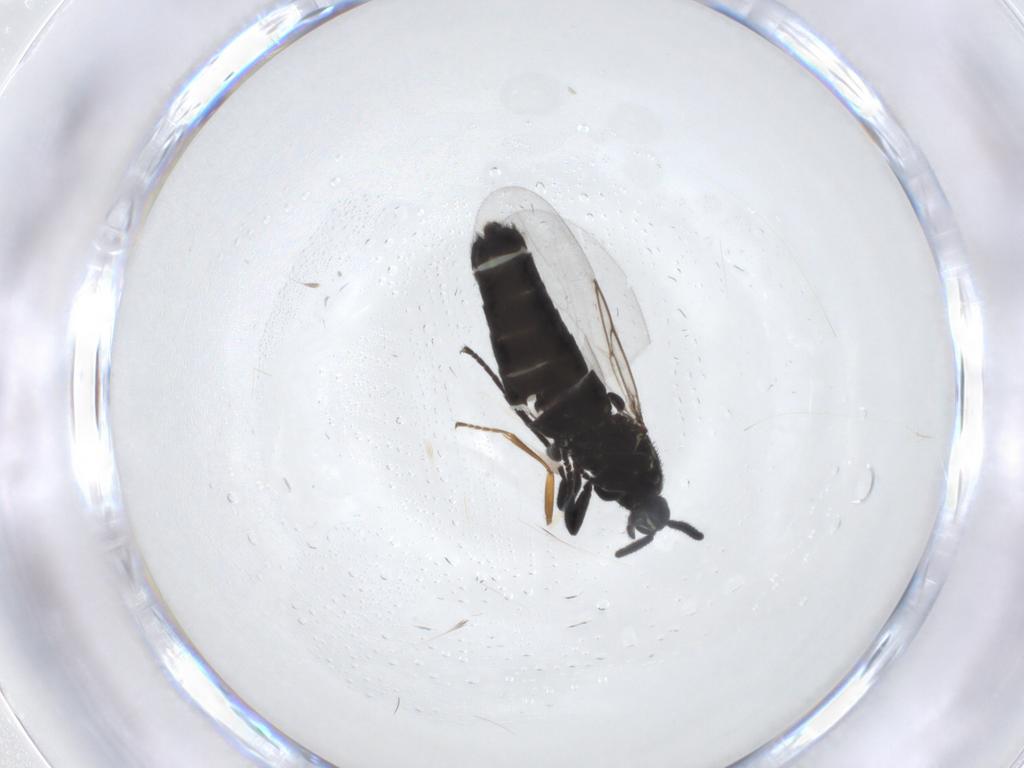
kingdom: Animalia
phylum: Arthropoda
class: Insecta
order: Diptera
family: Scatopsidae
